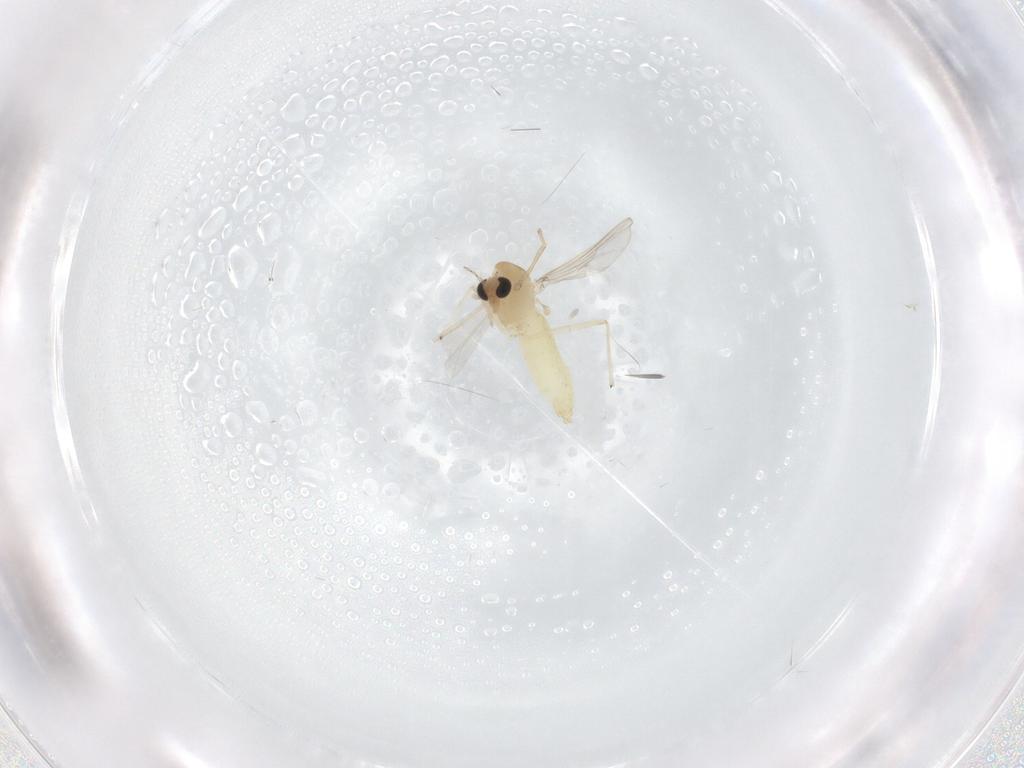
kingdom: Animalia
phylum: Arthropoda
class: Insecta
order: Diptera
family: Chironomidae
